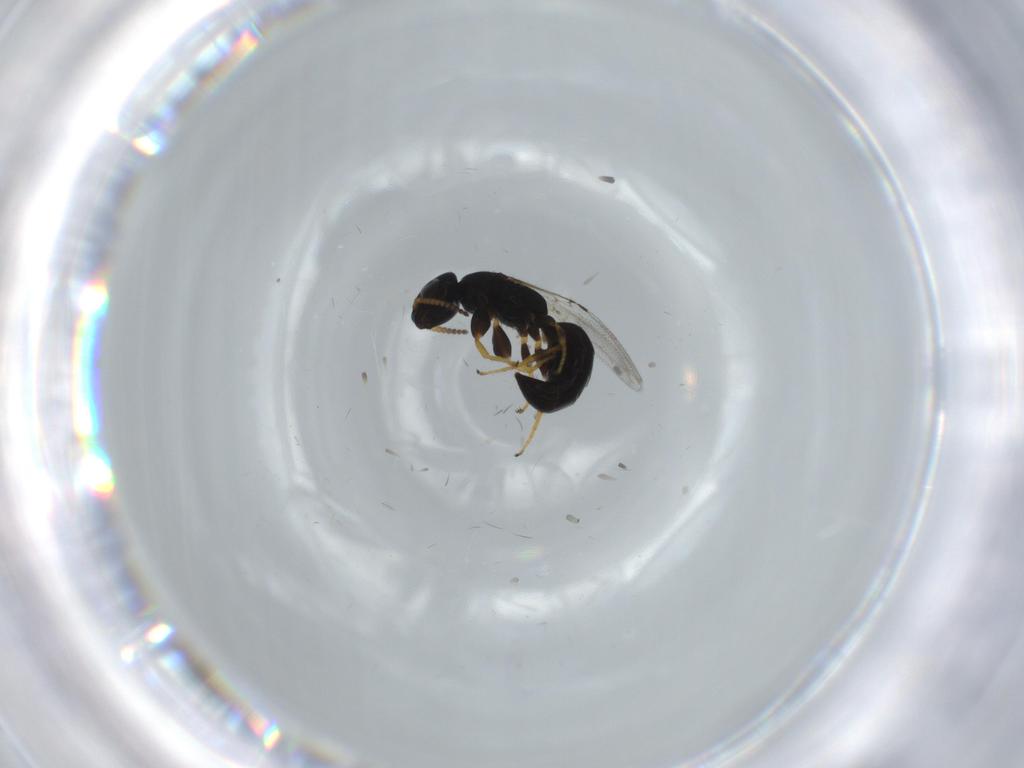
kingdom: Animalia
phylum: Arthropoda
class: Insecta
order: Hymenoptera
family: Bethylidae
